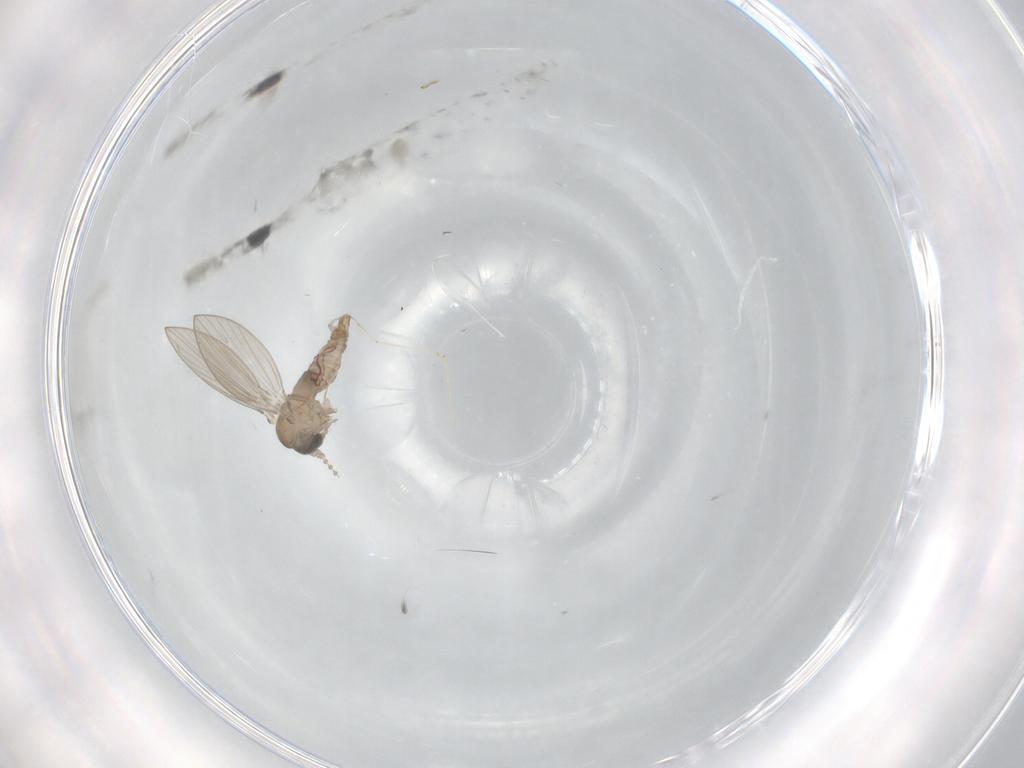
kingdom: Animalia
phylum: Arthropoda
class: Insecta
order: Diptera
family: Psychodidae
